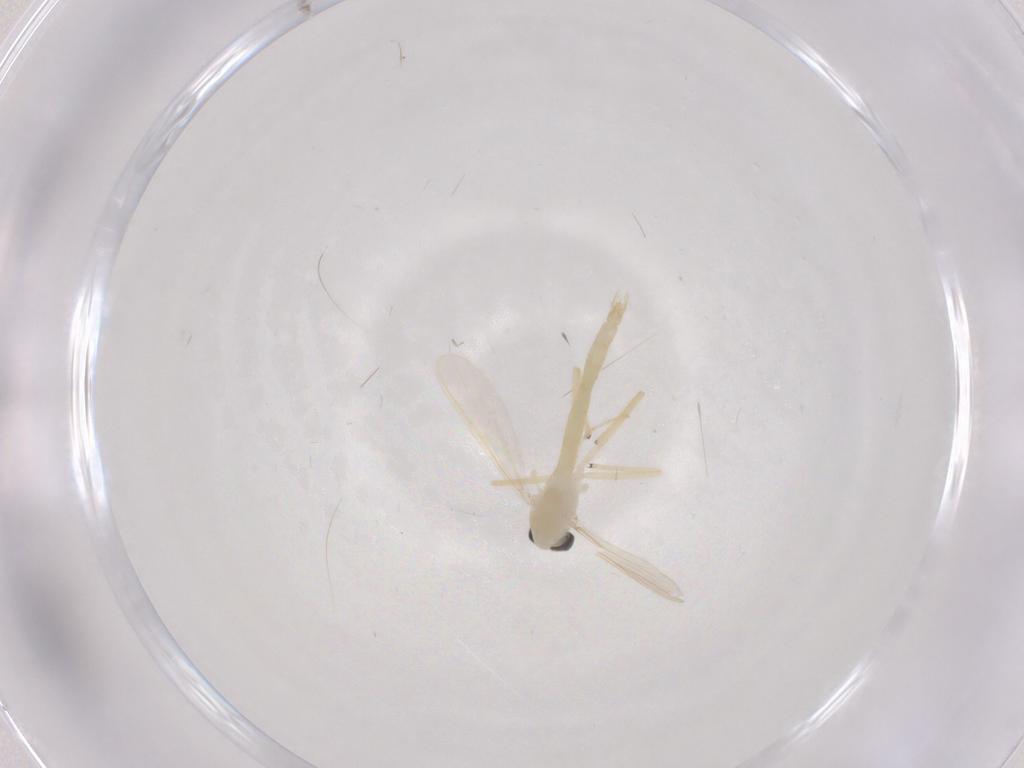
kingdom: Animalia
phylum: Arthropoda
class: Insecta
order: Diptera
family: Chironomidae
